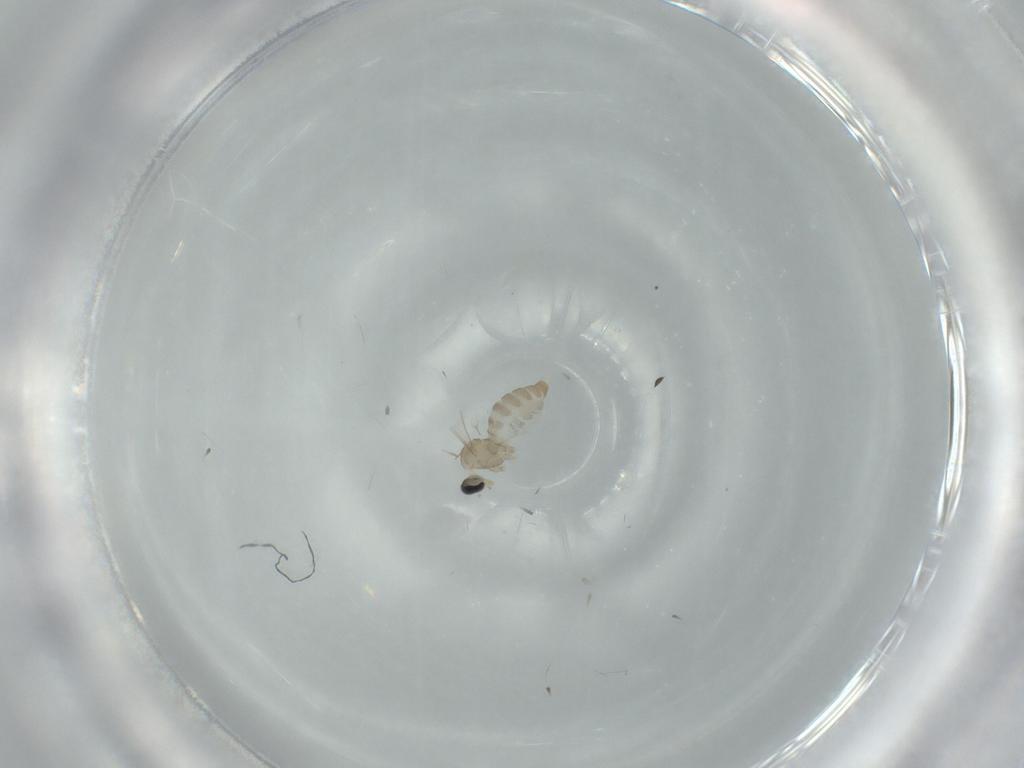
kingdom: Animalia
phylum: Arthropoda
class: Insecta
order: Diptera
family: Cecidomyiidae
